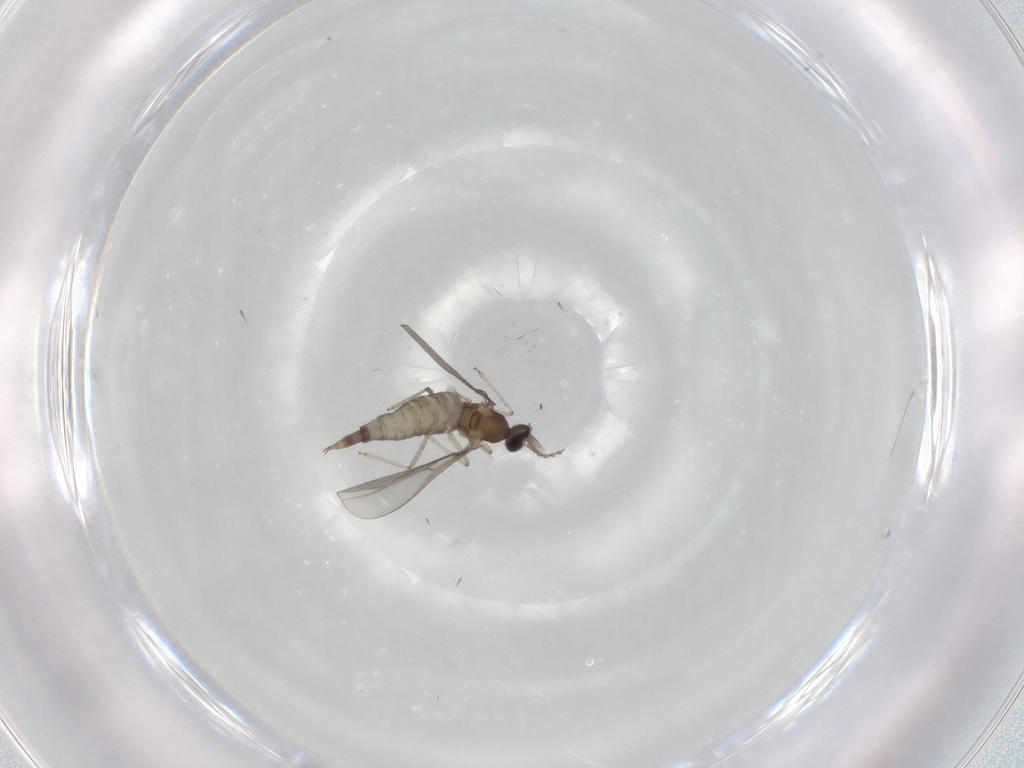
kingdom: Animalia
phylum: Arthropoda
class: Insecta
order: Diptera
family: Cecidomyiidae
